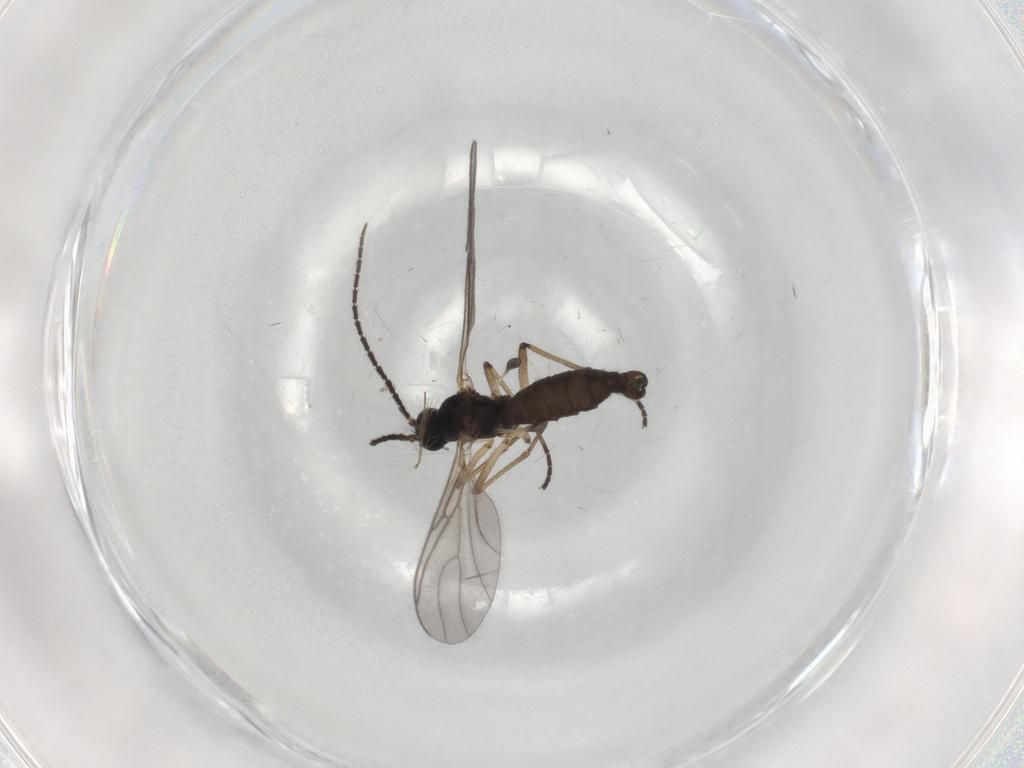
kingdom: Animalia
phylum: Arthropoda
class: Insecta
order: Diptera
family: Sciaridae
